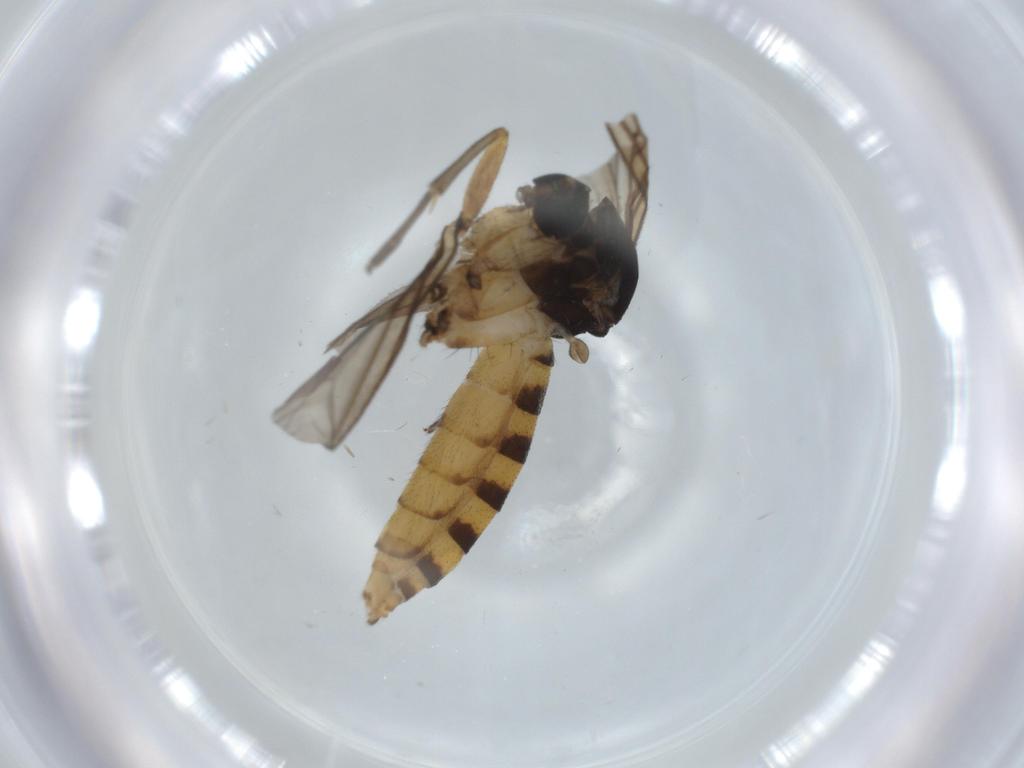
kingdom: Animalia
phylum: Arthropoda
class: Insecta
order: Diptera
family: Mycetophilidae
